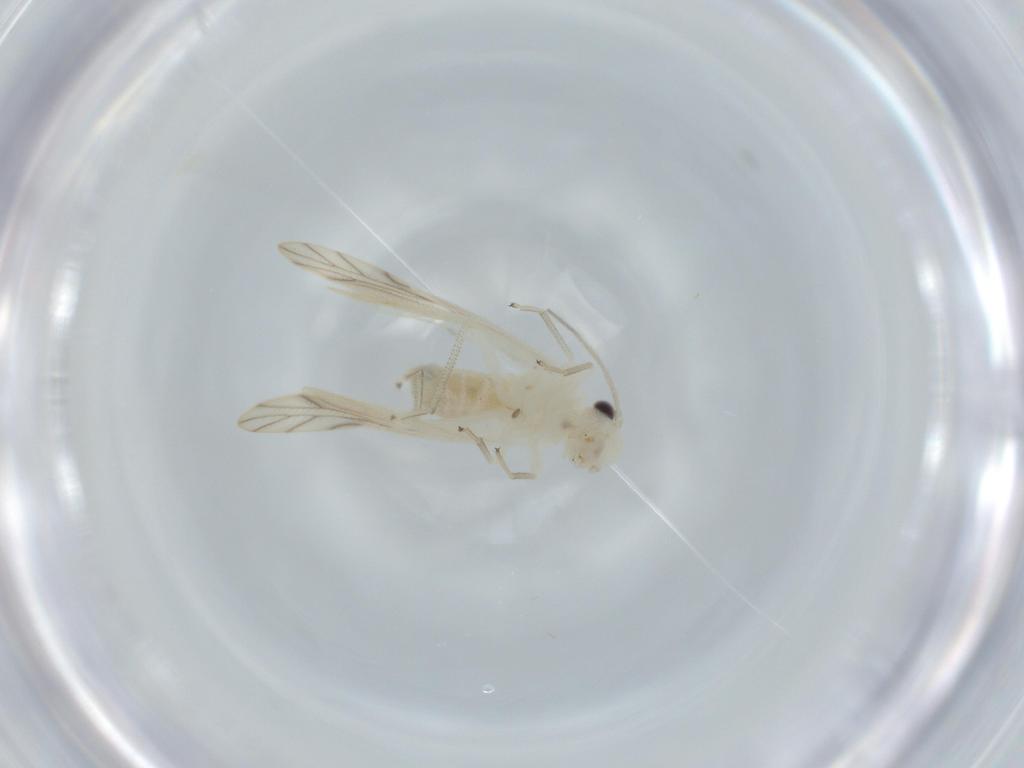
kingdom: Animalia
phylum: Arthropoda
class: Insecta
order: Psocodea
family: Caeciliusidae
